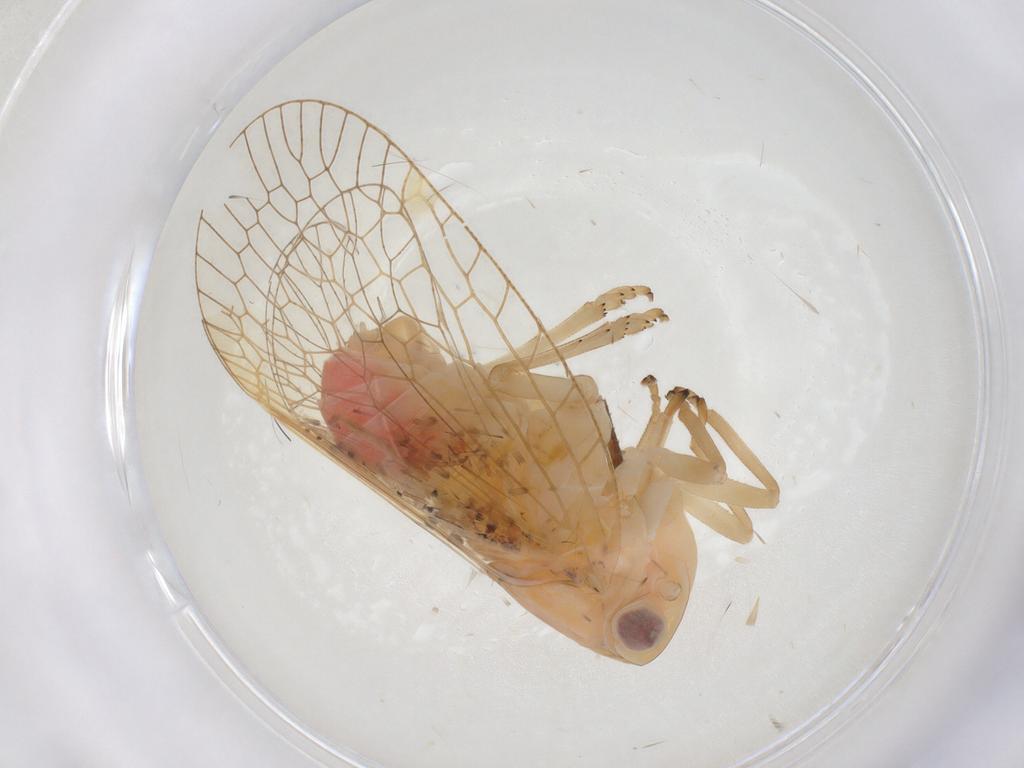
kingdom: Animalia
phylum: Arthropoda
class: Insecta
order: Hemiptera
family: Tropiduchidae
